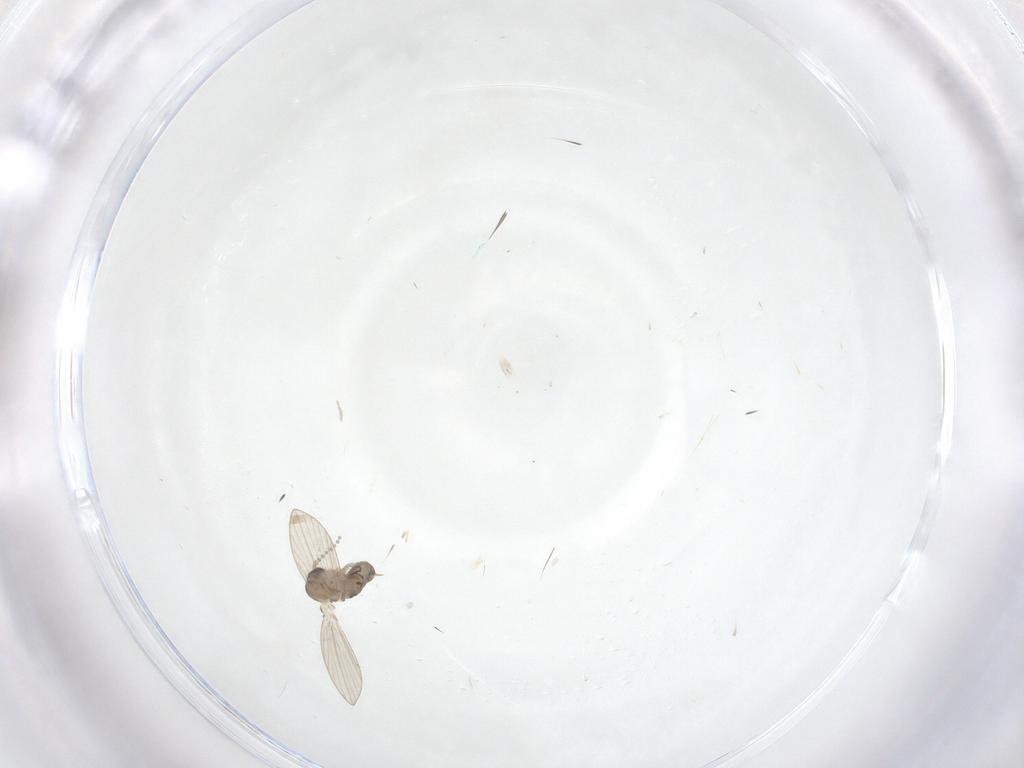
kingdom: Animalia
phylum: Arthropoda
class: Insecta
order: Diptera
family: Psychodidae
